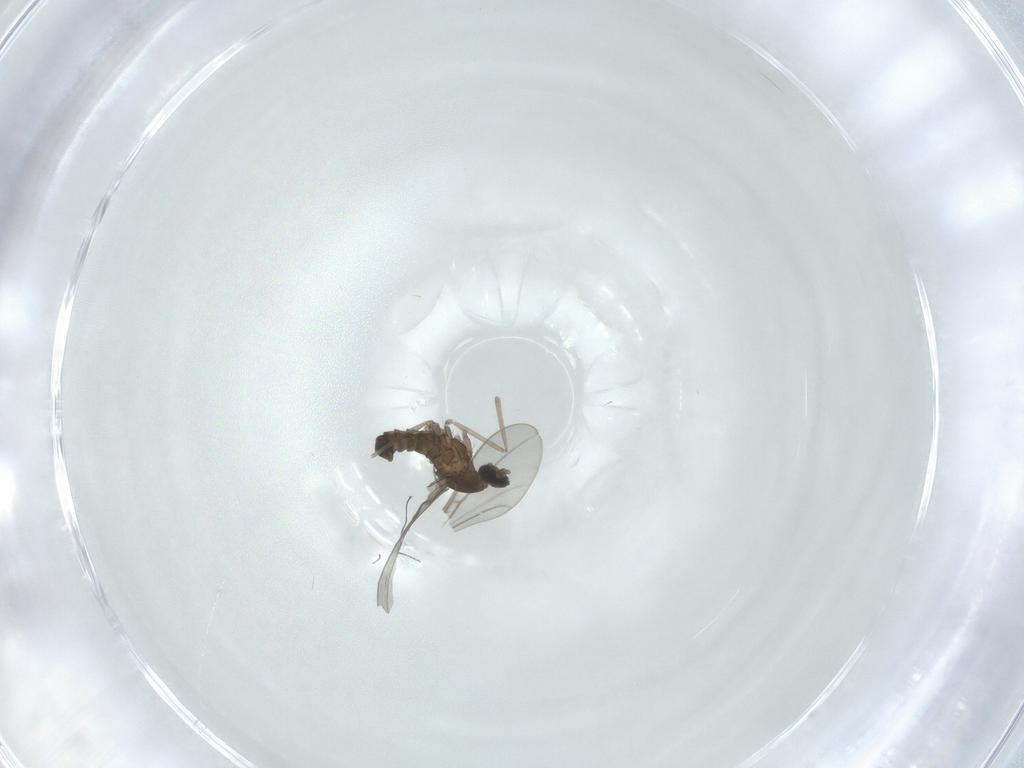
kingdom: Animalia
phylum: Arthropoda
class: Insecta
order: Diptera
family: Cecidomyiidae
